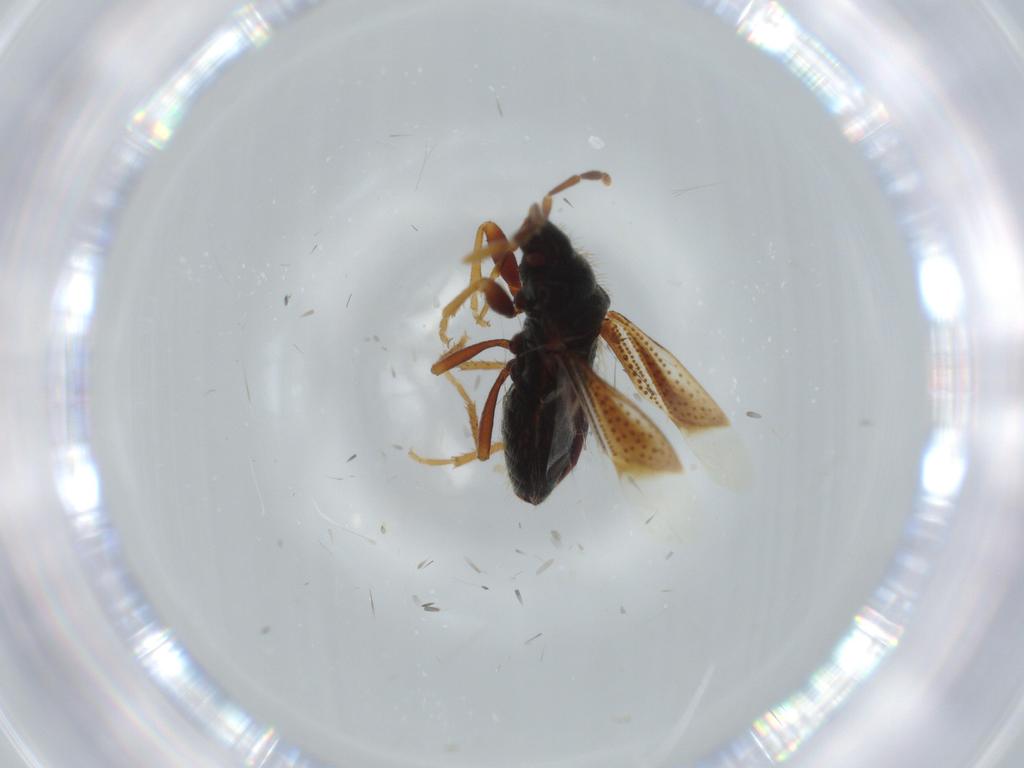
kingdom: Animalia
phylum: Arthropoda
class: Insecta
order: Hemiptera
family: Rhyparochromidae
